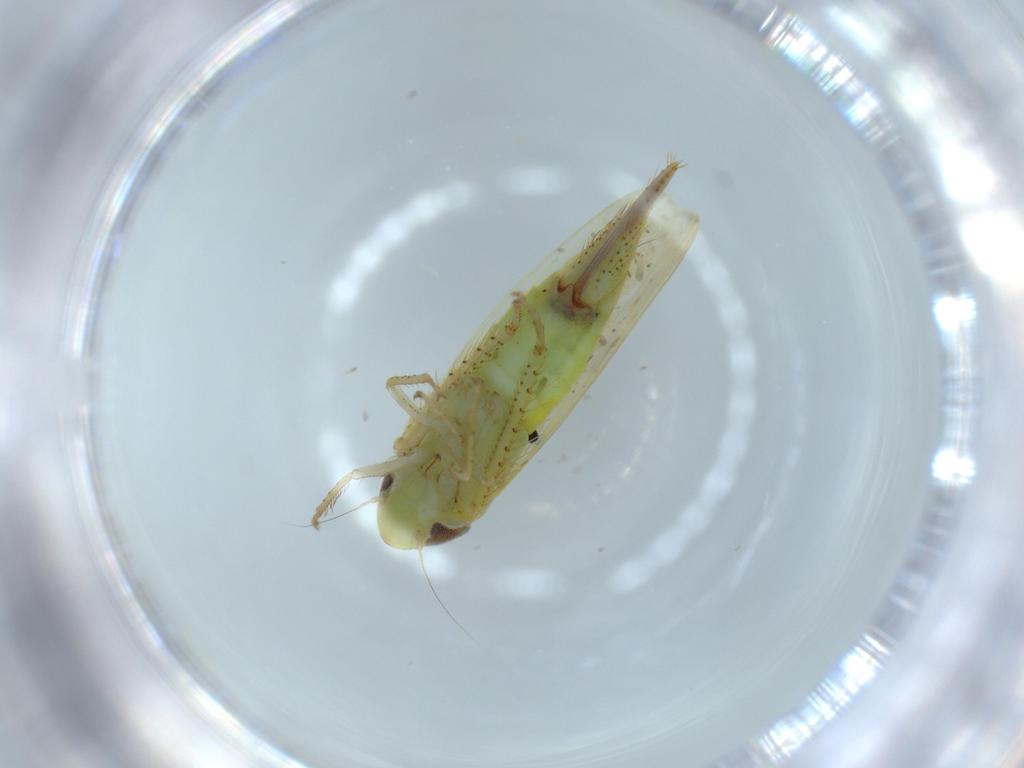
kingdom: Animalia
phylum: Arthropoda
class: Insecta
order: Hemiptera
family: Cicadellidae
